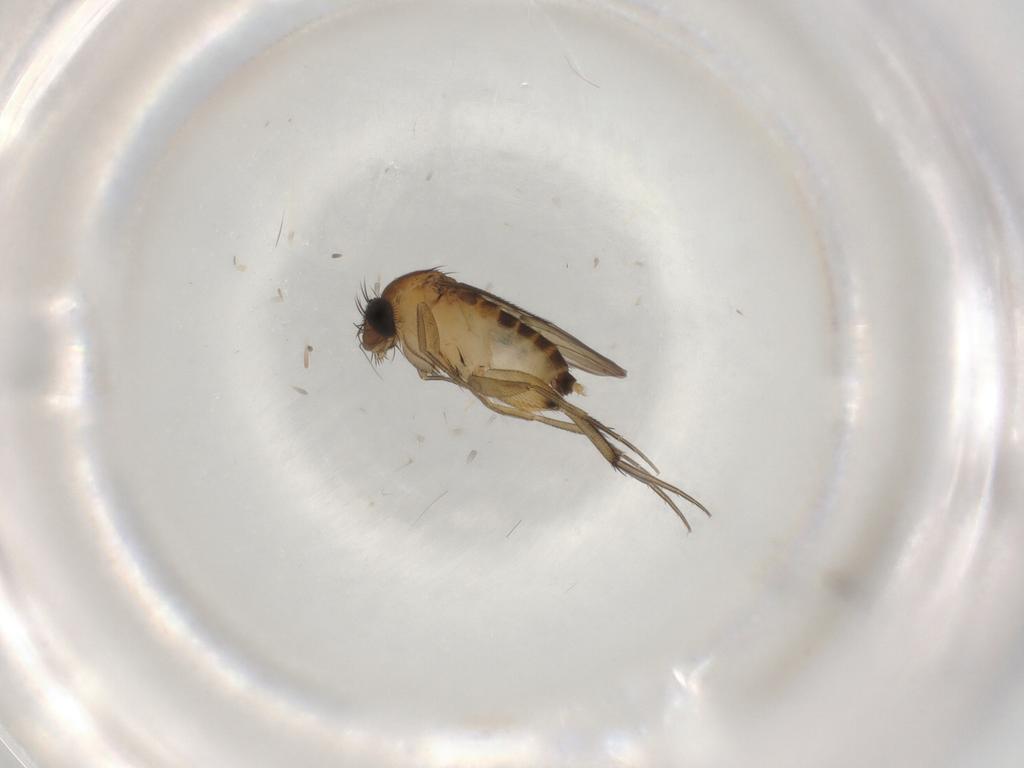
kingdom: Animalia
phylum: Arthropoda
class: Insecta
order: Diptera
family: Phoridae
